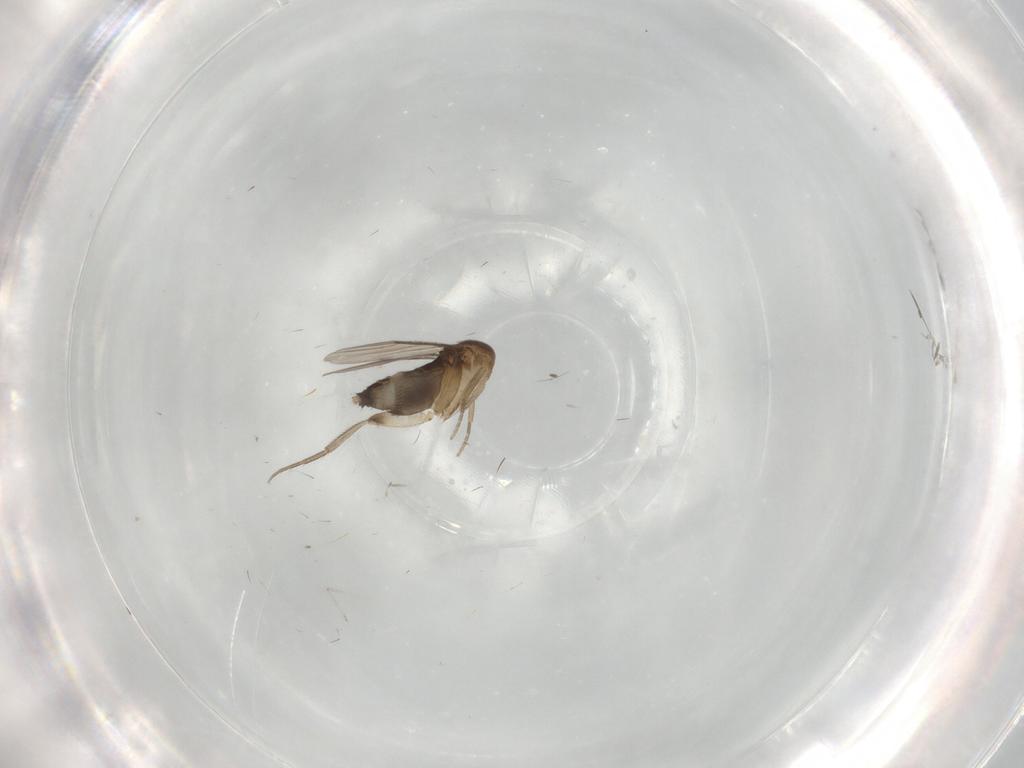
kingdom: Animalia
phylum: Arthropoda
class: Insecta
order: Diptera
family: Phoridae
